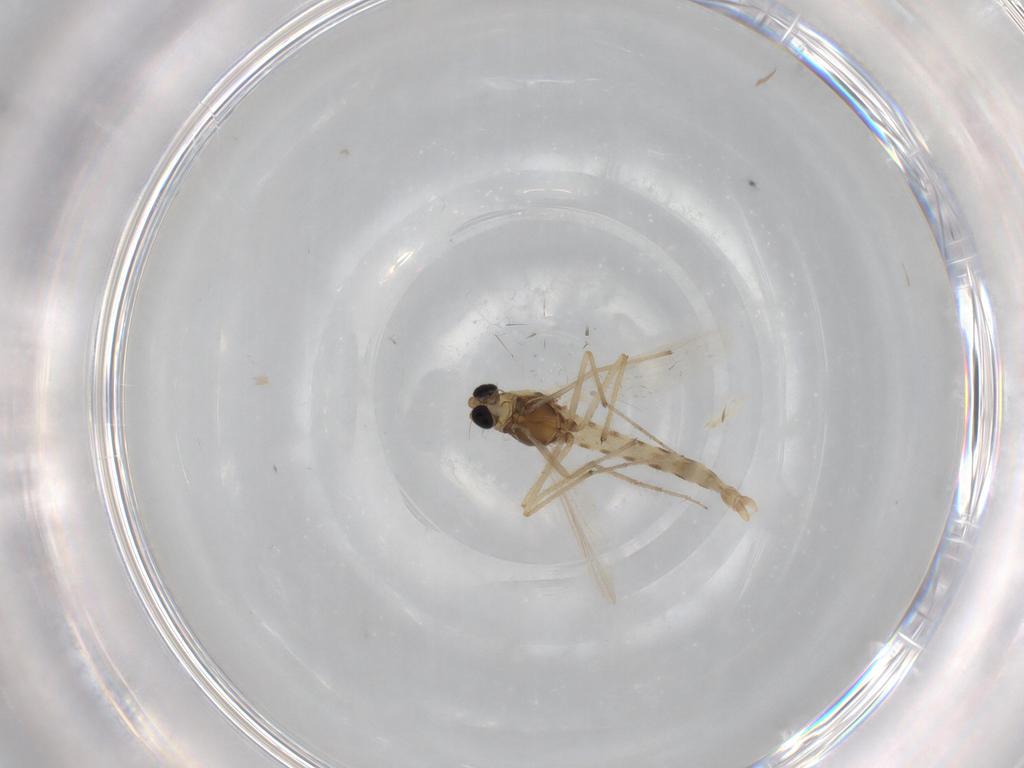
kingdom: Animalia
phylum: Arthropoda
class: Insecta
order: Diptera
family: Chironomidae
